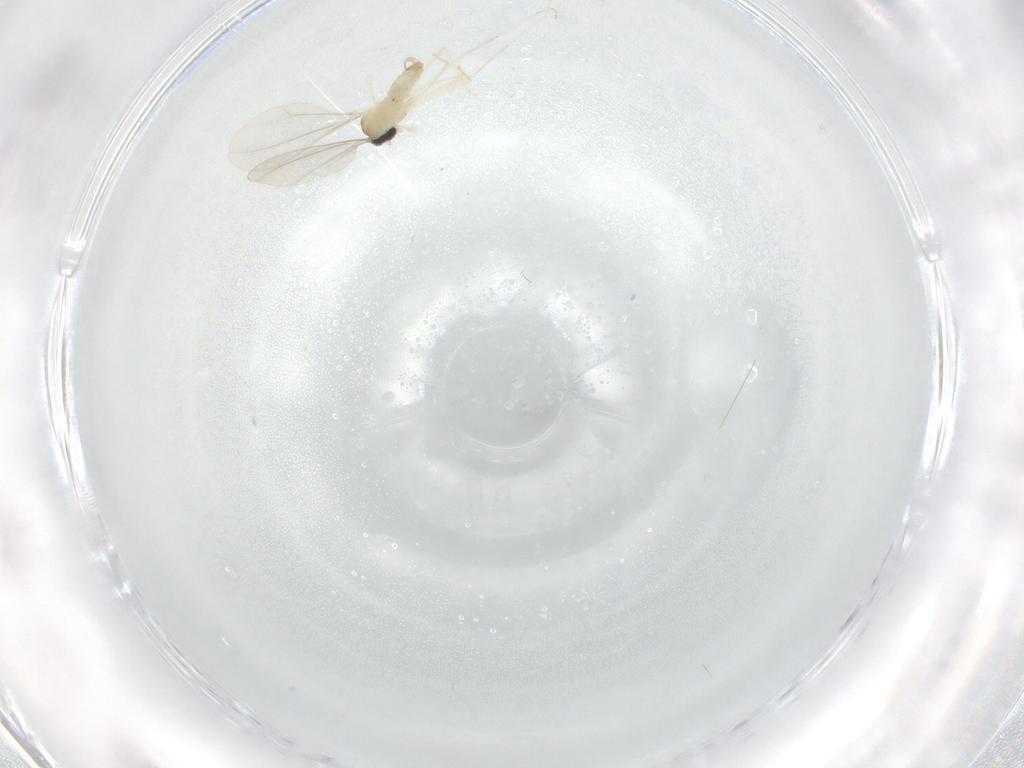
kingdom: Animalia
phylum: Arthropoda
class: Insecta
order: Diptera
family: Cecidomyiidae
